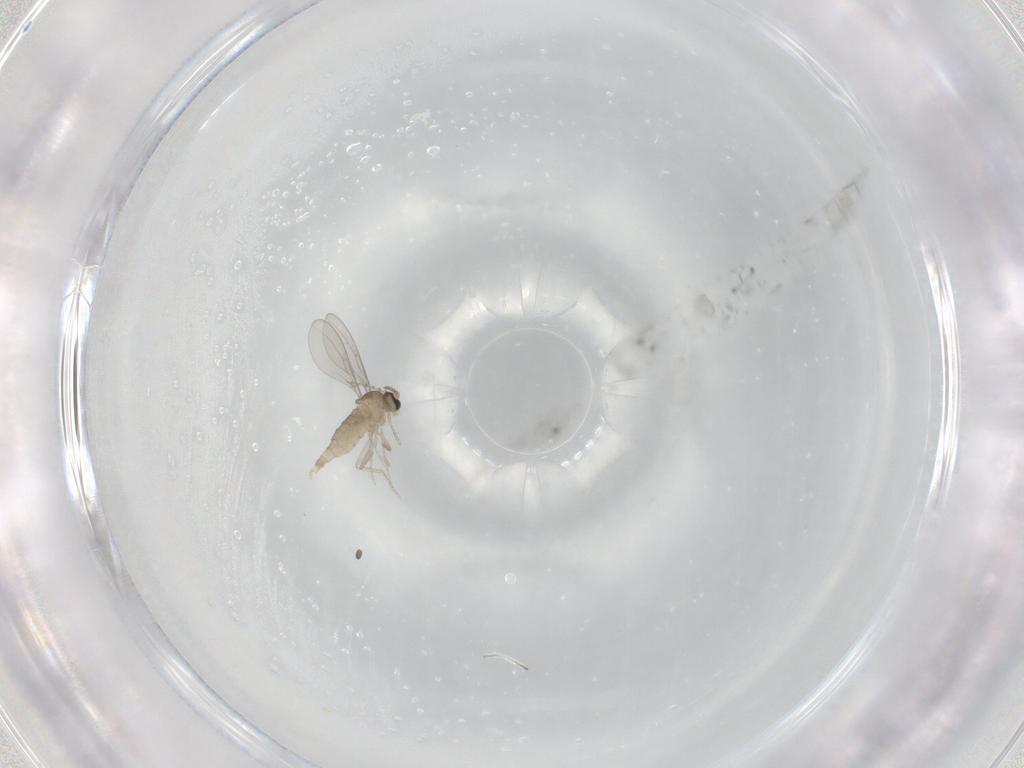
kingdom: Animalia
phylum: Arthropoda
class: Insecta
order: Diptera
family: Cecidomyiidae
